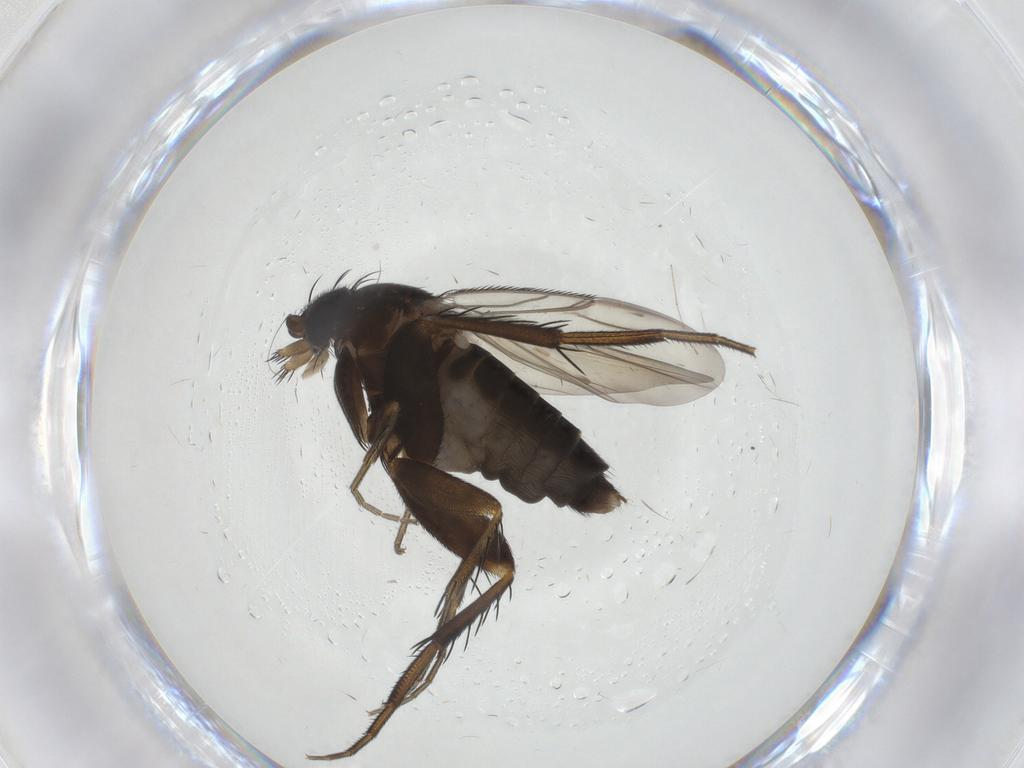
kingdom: Animalia
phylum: Arthropoda
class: Insecta
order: Diptera
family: Phoridae
